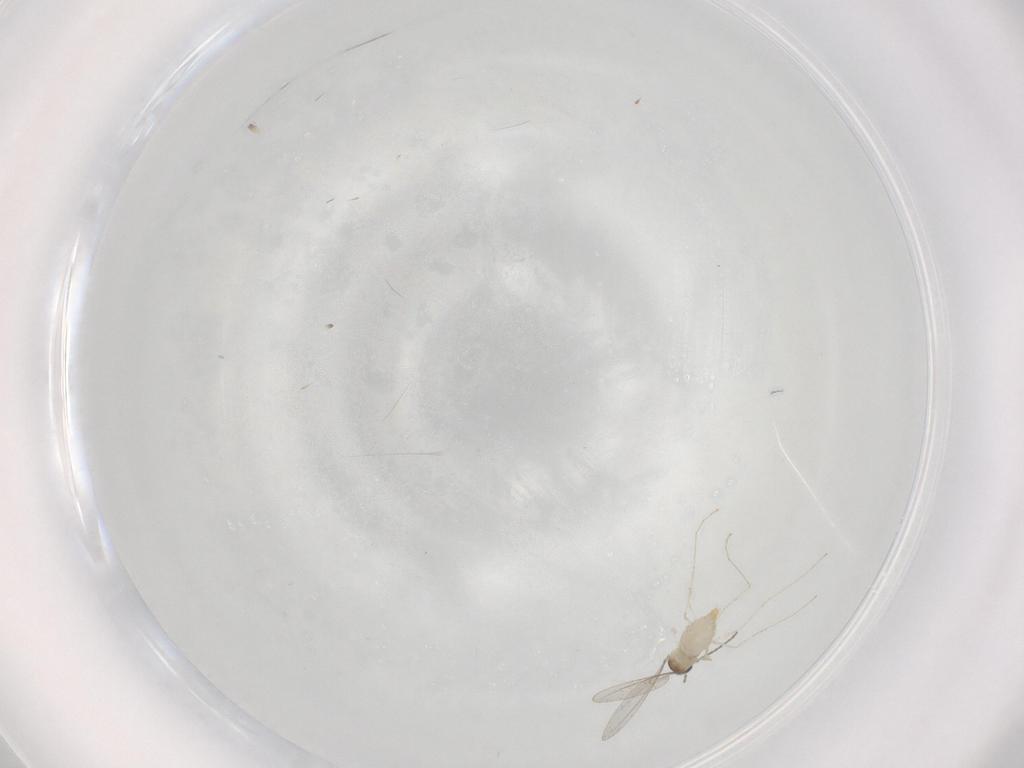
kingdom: Animalia
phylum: Arthropoda
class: Insecta
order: Diptera
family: Cecidomyiidae
